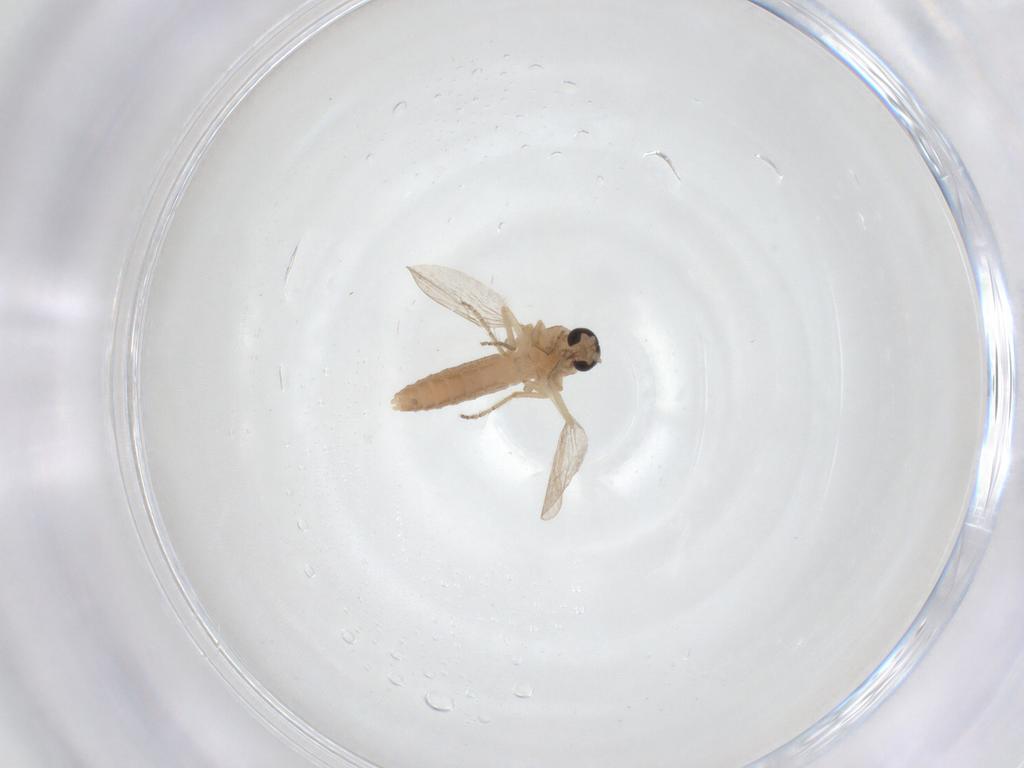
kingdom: Animalia
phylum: Arthropoda
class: Insecta
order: Diptera
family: Ceratopogonidae
